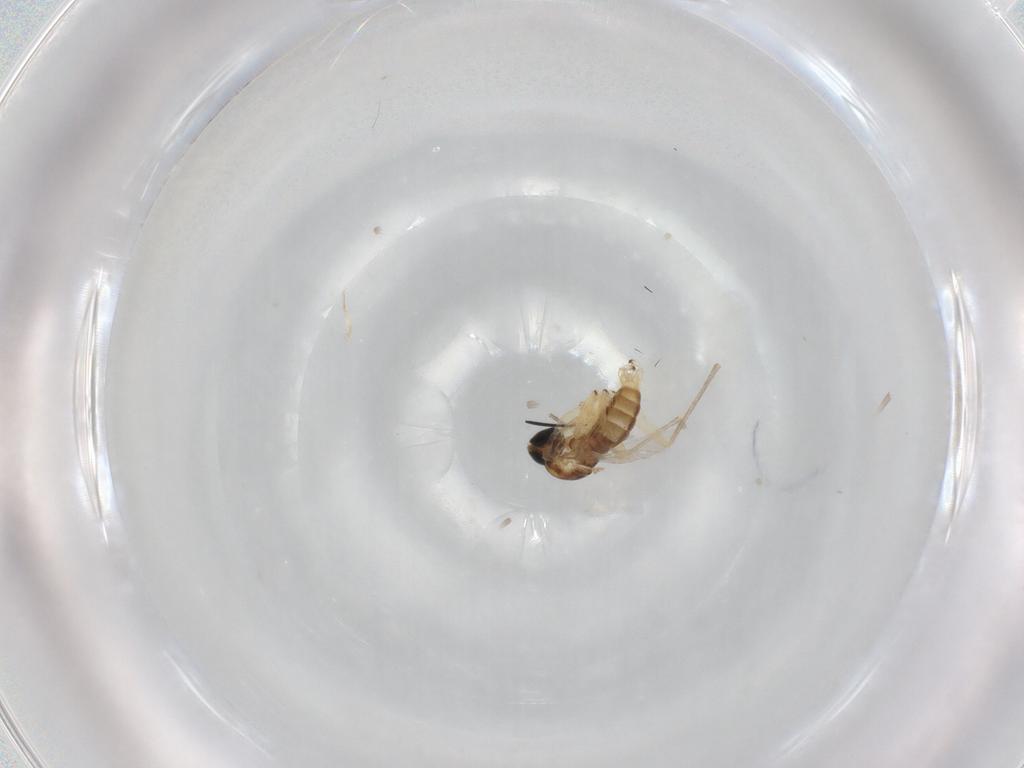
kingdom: Animalia
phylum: Arthropoda
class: Insecta
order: Diptera
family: Sciaridae
